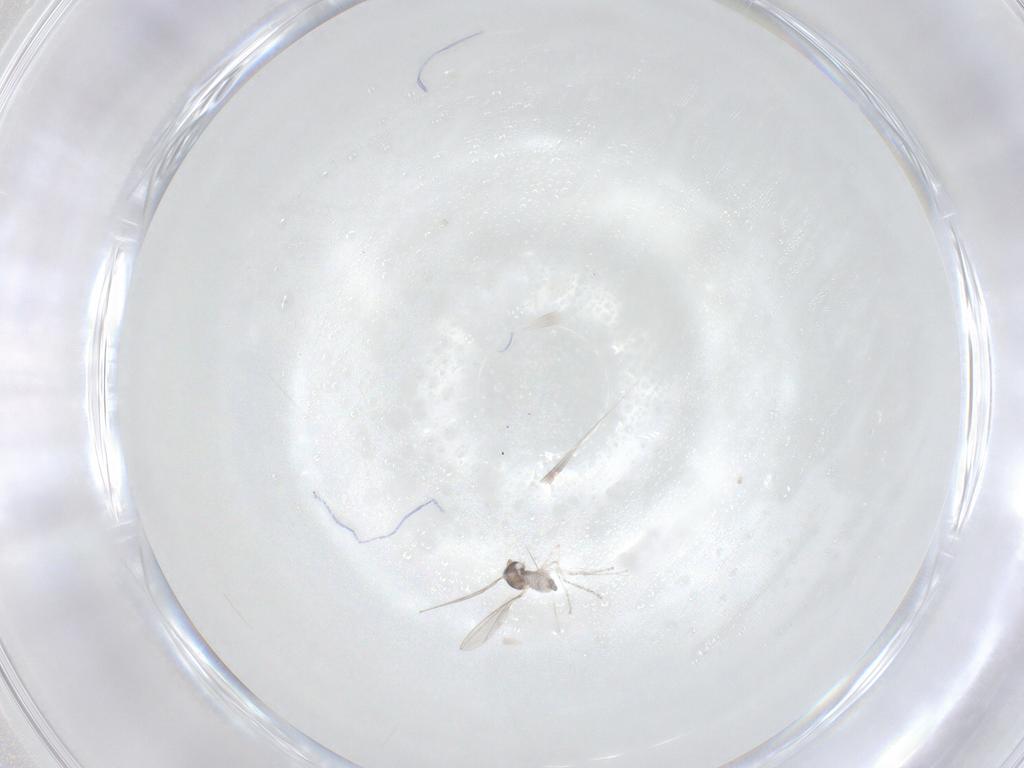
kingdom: Animalia
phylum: Arthropoda
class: Insecta
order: Diptera
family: Cecidomyiidae
